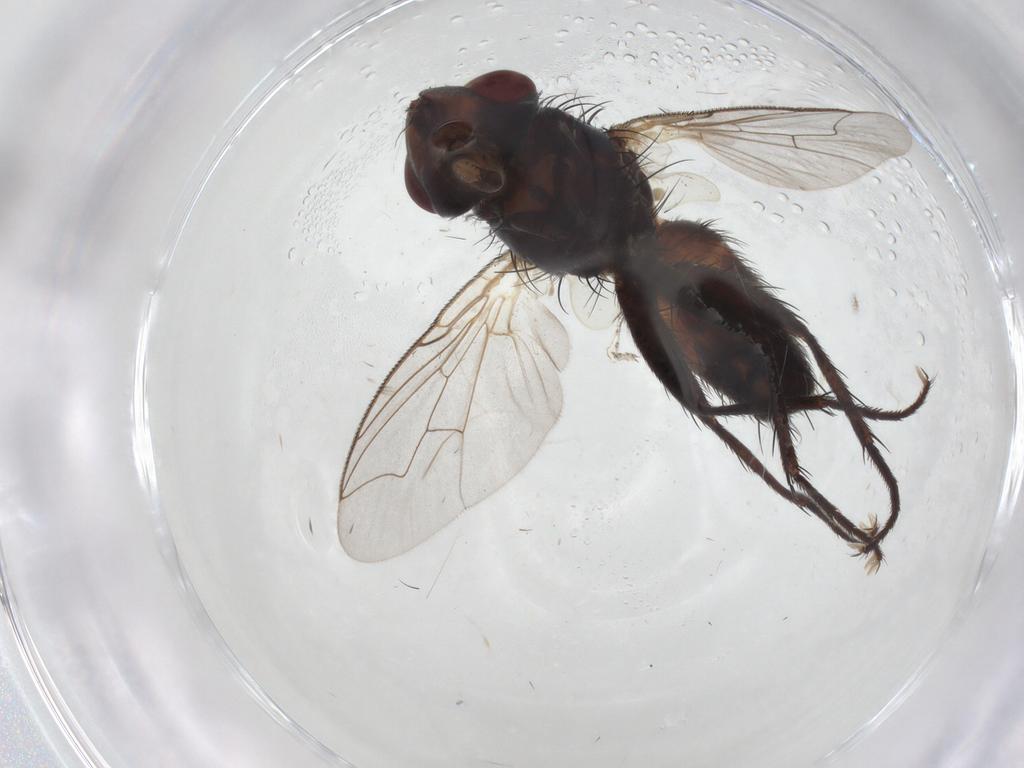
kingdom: Animalia
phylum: Arthropoda
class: Insecta
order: Diptera
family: Sarcophagidae
